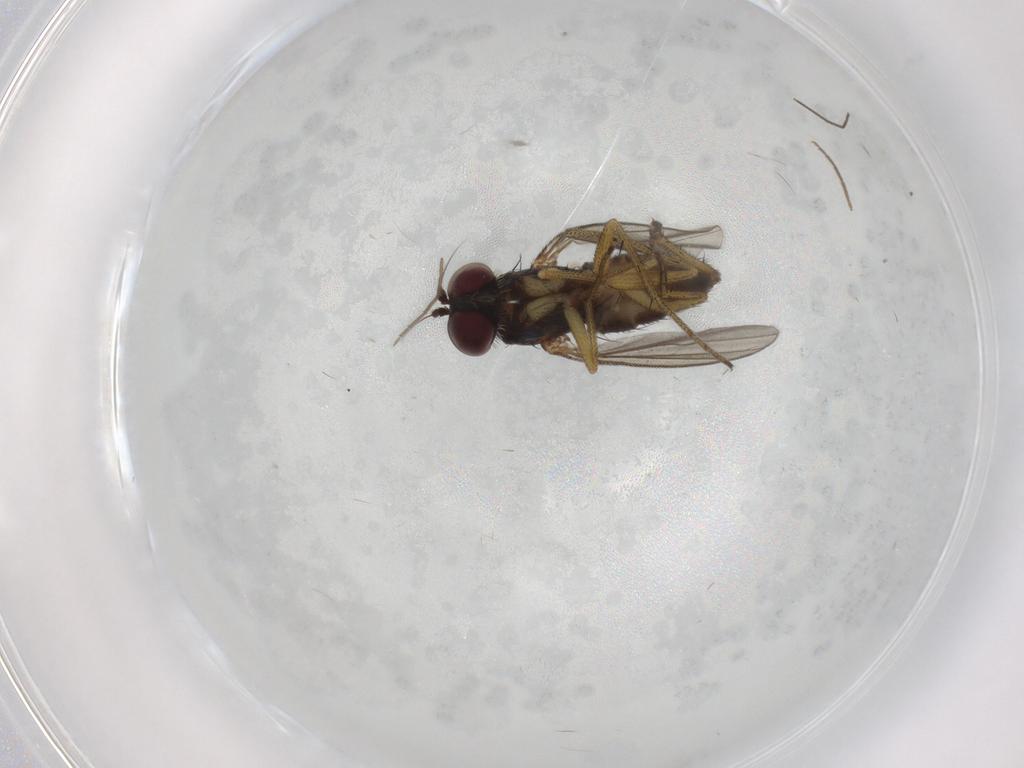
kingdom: Animalia
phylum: Arthropoda
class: Insecta
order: Diptera
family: Dolichopodidae
